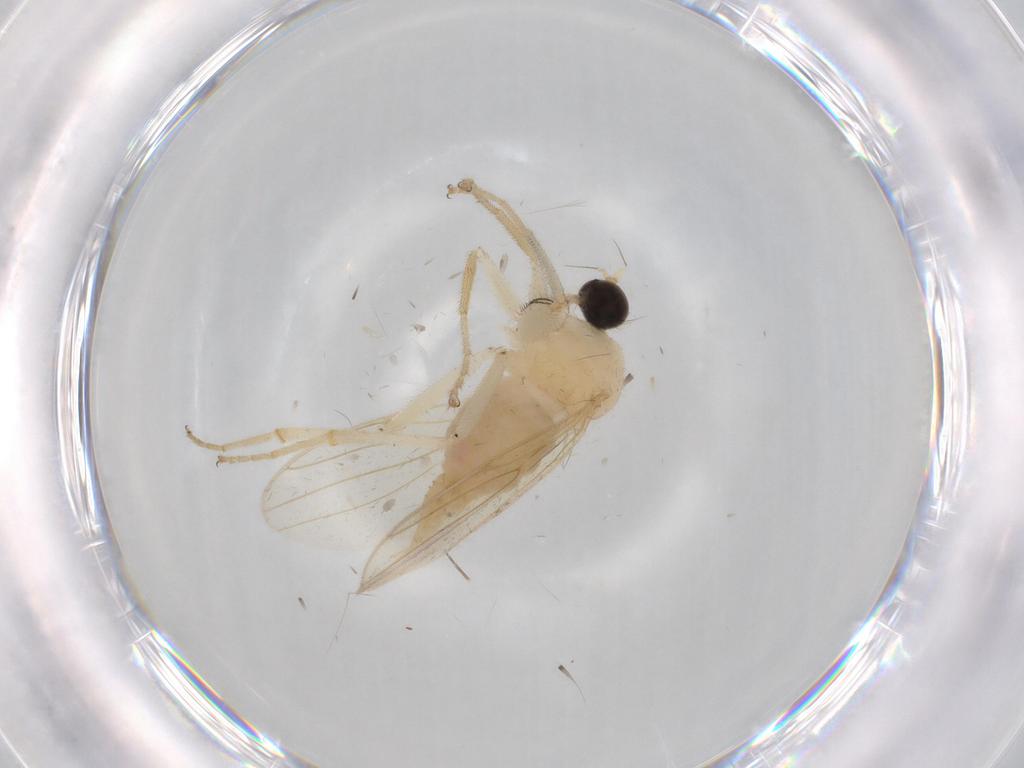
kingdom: Animalia
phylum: Arthropoda
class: Insecta
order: Diptera
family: Hybotidae
